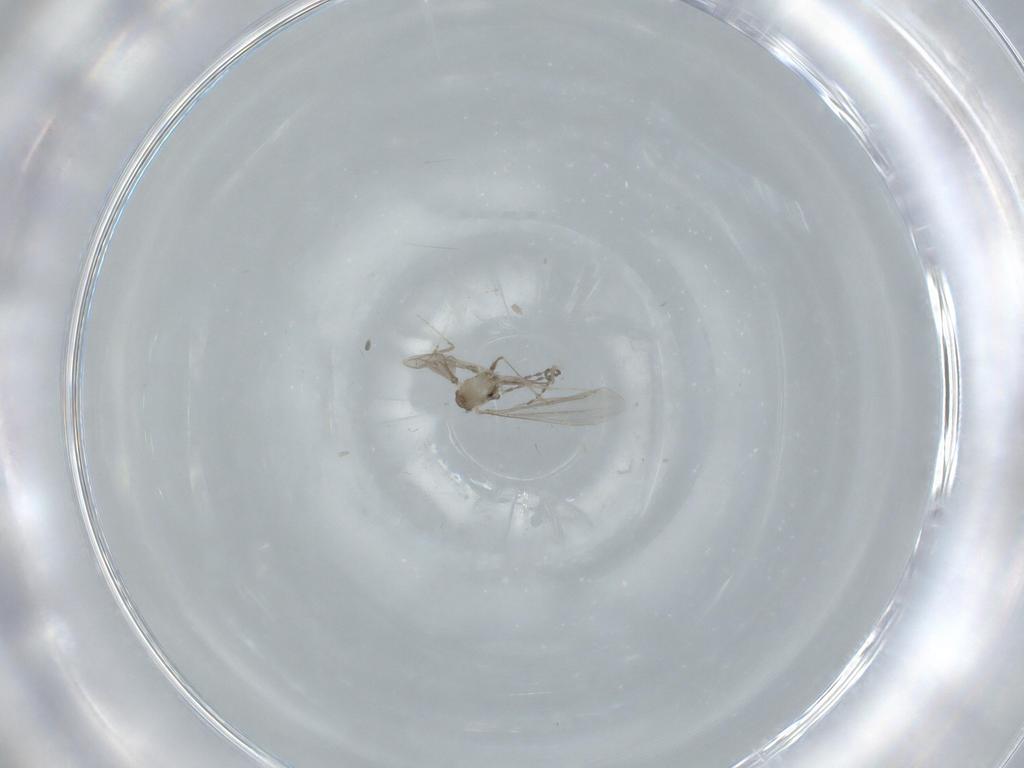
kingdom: Animalia
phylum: Arthropoda
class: Insecta
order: Diptera
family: Cecidomyiidae
